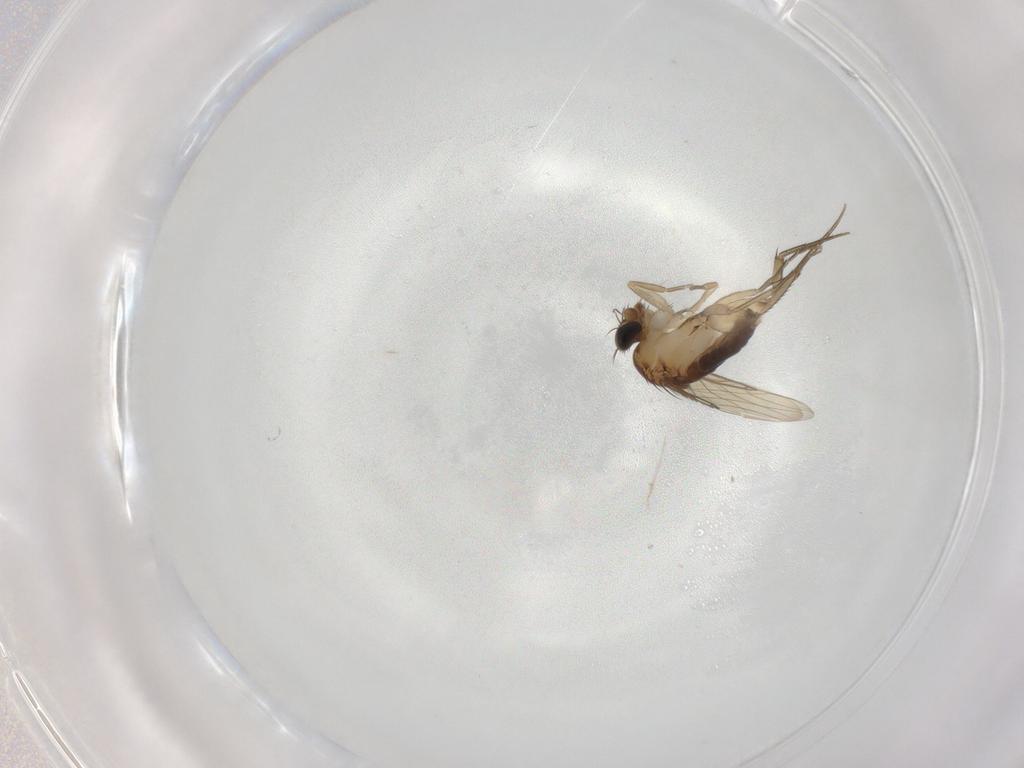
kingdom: Animalia
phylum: Arthropoda
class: Insecta
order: Diptera
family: Phoridae
